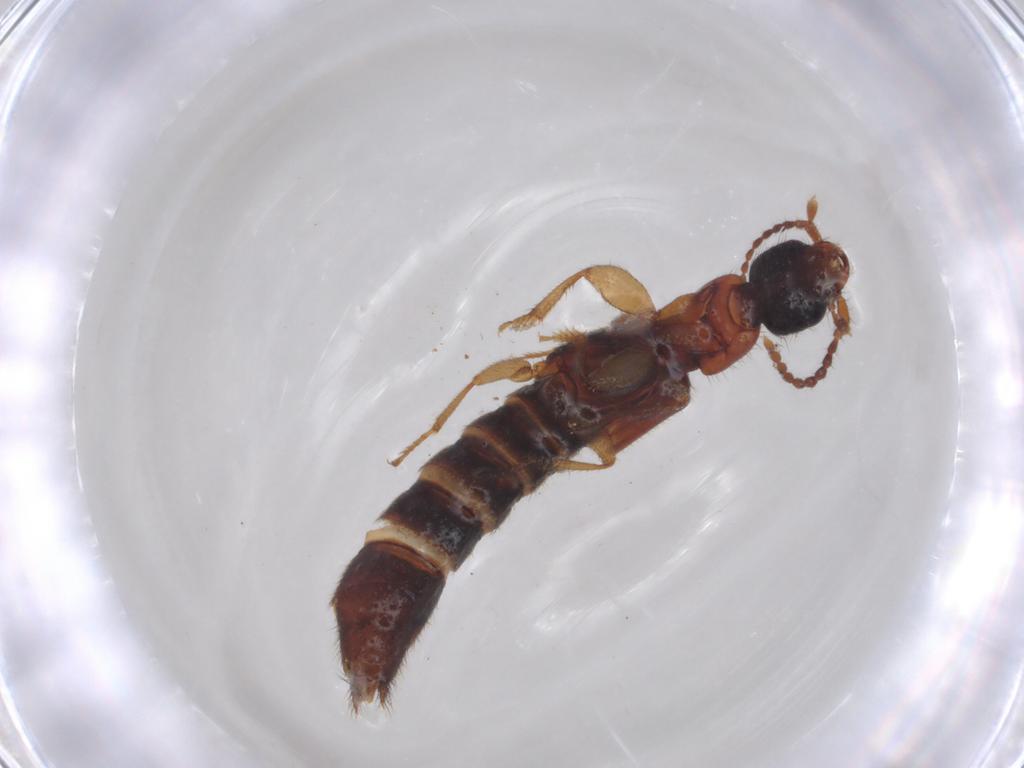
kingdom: Animalia
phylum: Arthropoda
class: Insecta
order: Coleoptera
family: Staphylinidae
